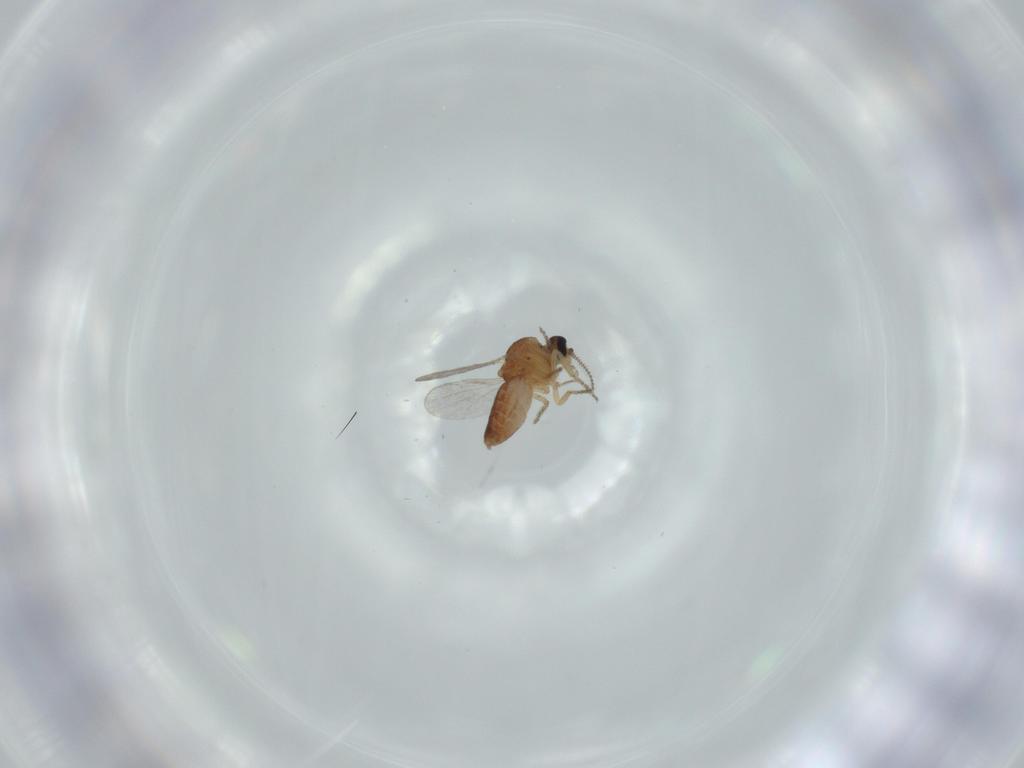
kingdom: Animalia
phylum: Arthropoda
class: Insecta
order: Diptera
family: Ceratopogonidae
